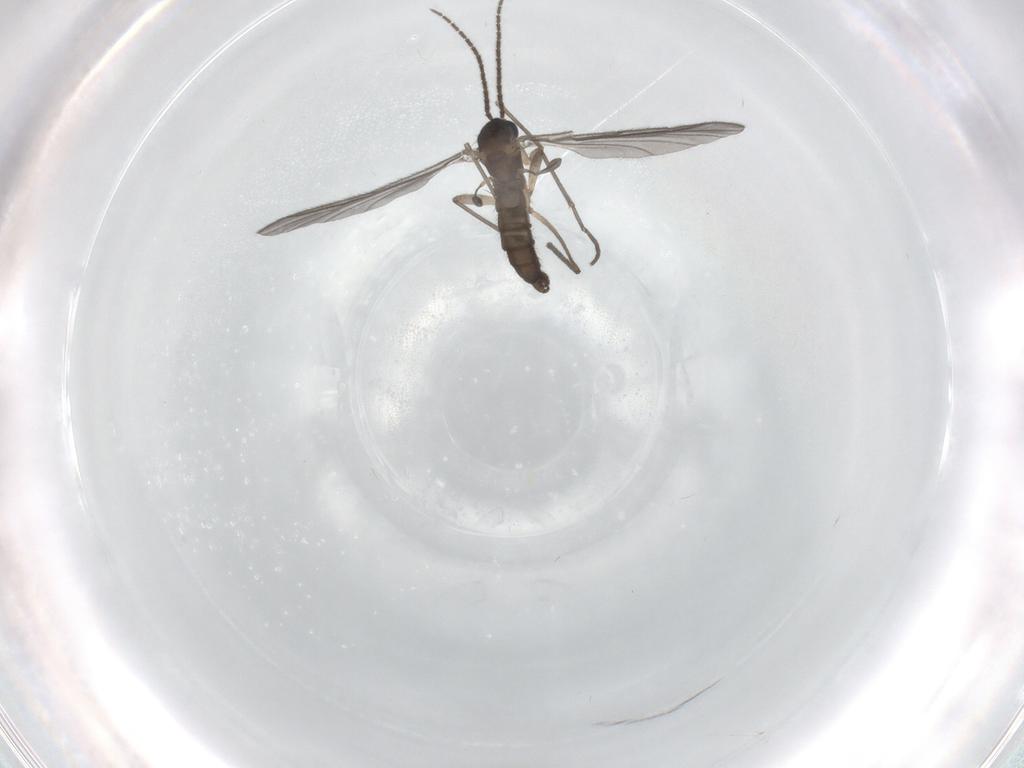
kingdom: Animalia
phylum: Arthropoda
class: Insecta
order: Diptera
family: Sciaridae
